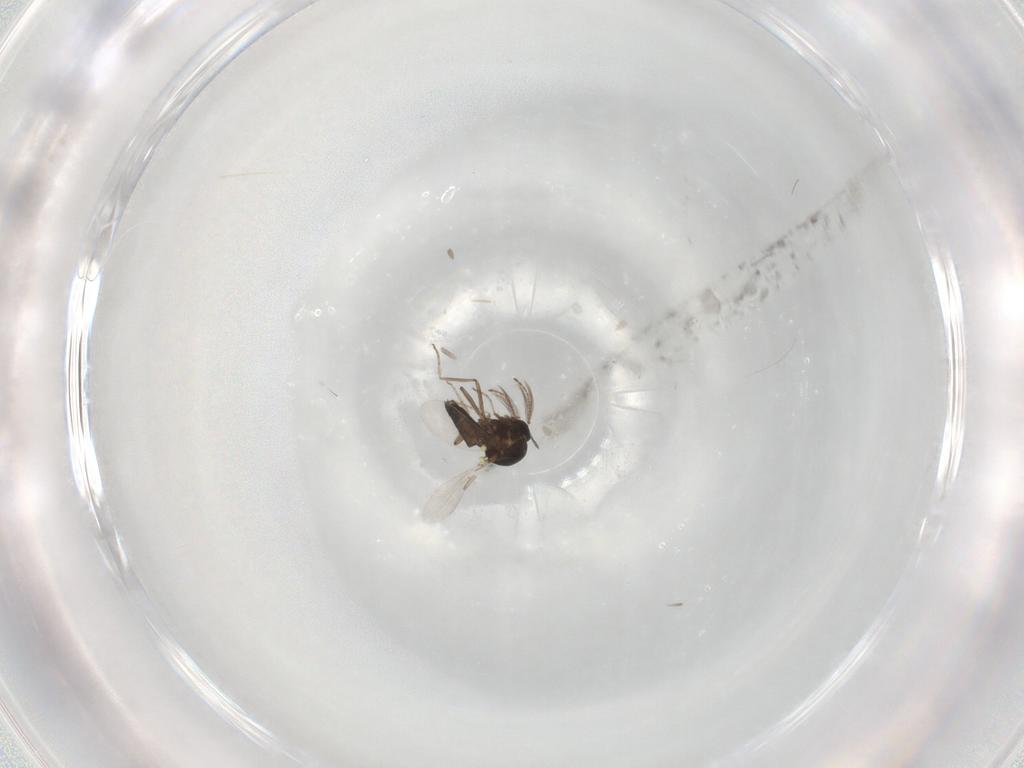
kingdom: Animalia
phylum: Arthropoda
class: Insecta
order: Diptera
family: Ceratopogonidae
